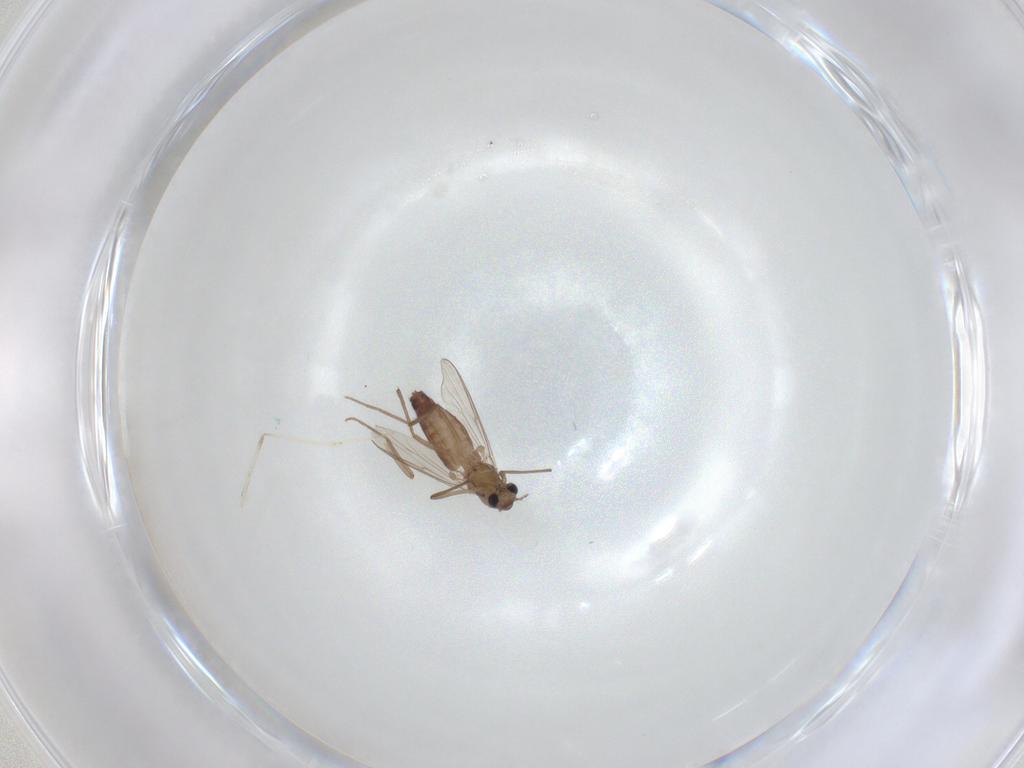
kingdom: Animalia
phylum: Arthropoda
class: Insecta
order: Diptera
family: Chironomidae
